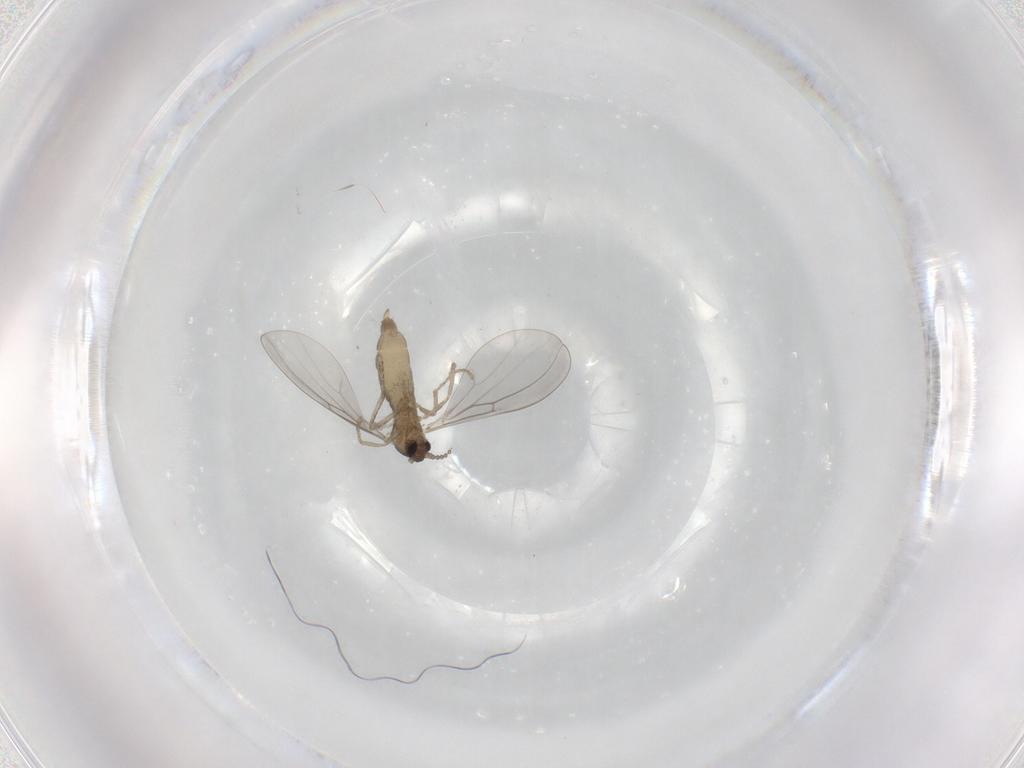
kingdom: Animalia
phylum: Arthropoda
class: Insecta
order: Diptera
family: Cecidomyiidae
